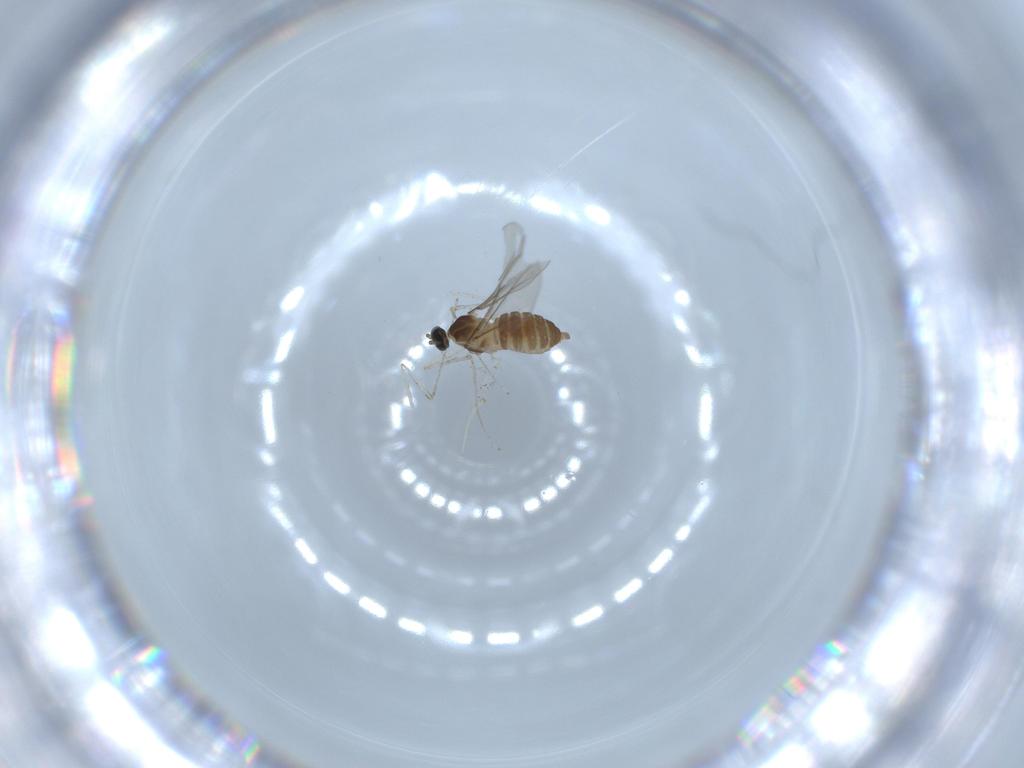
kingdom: Animalia
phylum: Arthropoda
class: Insecta
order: Diptera
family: Cecidomyiidae
